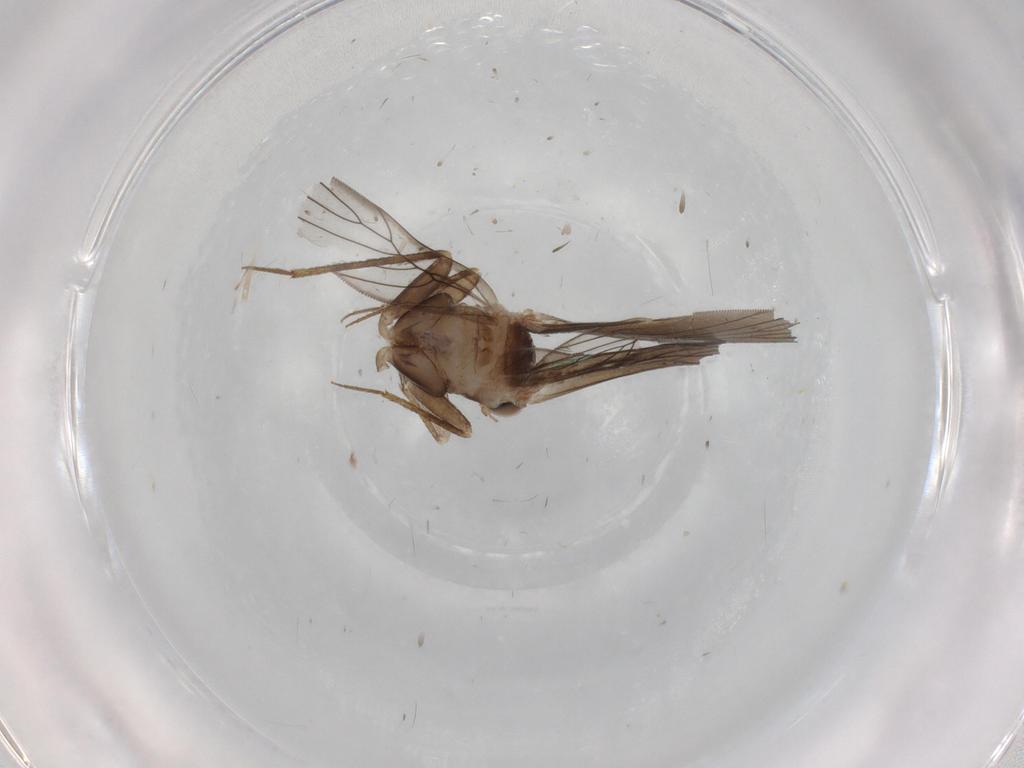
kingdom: Animalia
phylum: Arthropoda
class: Insecta
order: Psocodea
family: Lepidopsocidae
